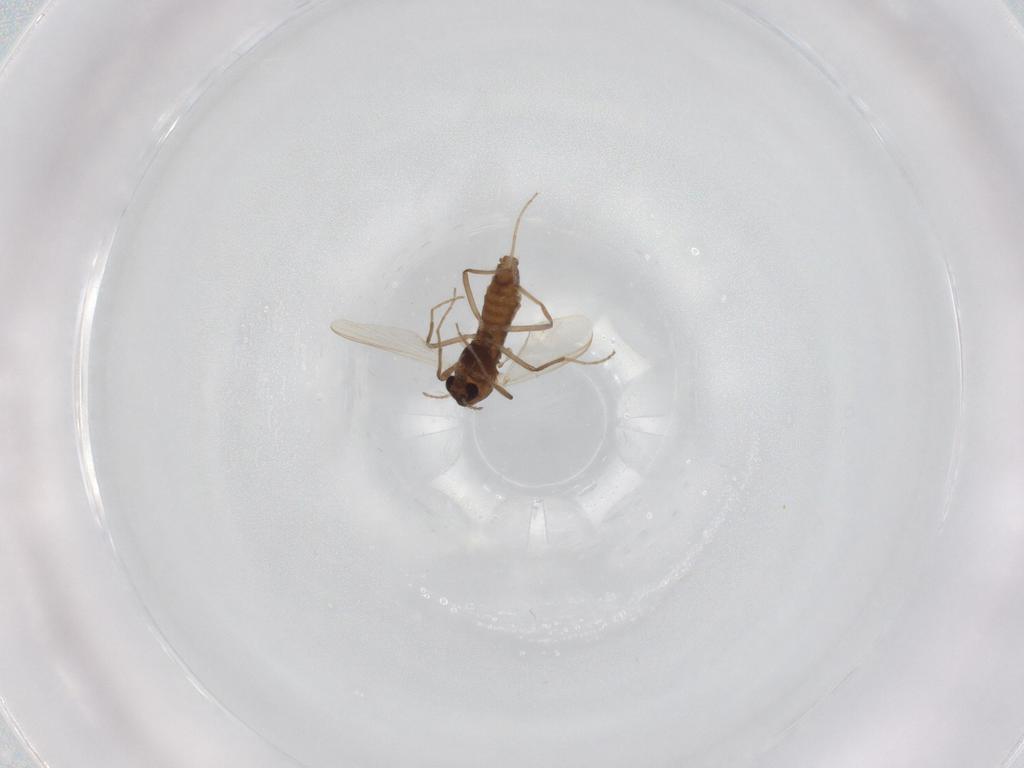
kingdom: Animalia
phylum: Arthropoda
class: Insecta
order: Diptera
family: Chironomidae
